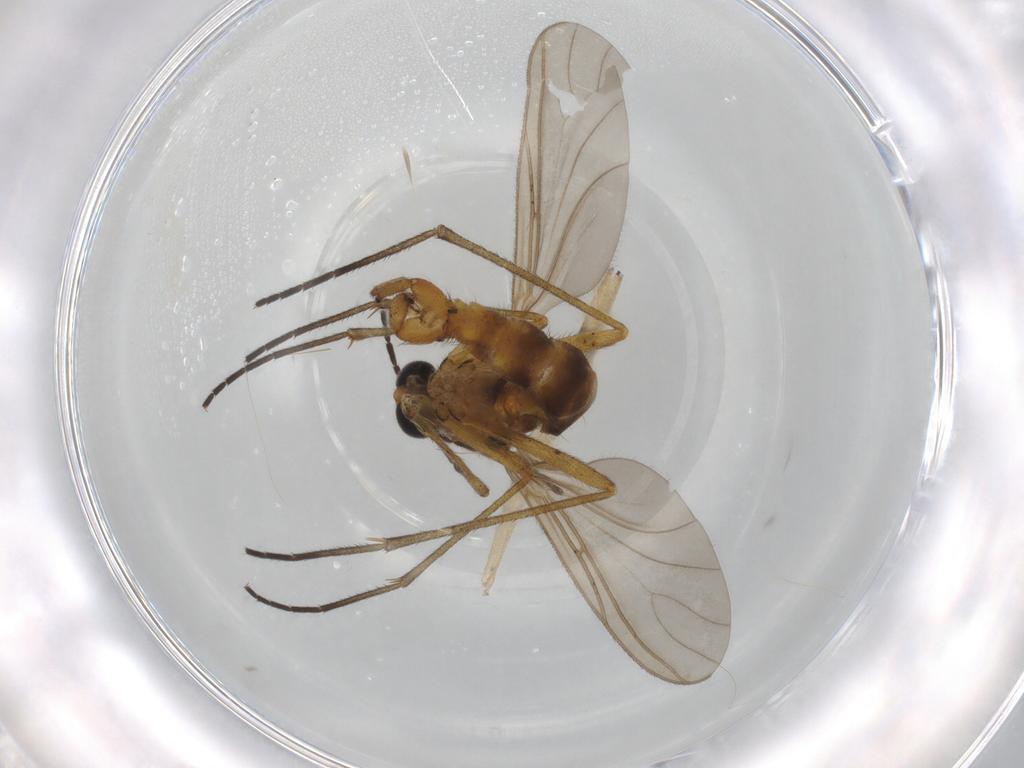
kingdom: Animalia
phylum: Arthropoda
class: Insecta
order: Diptera
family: Sciaridae
